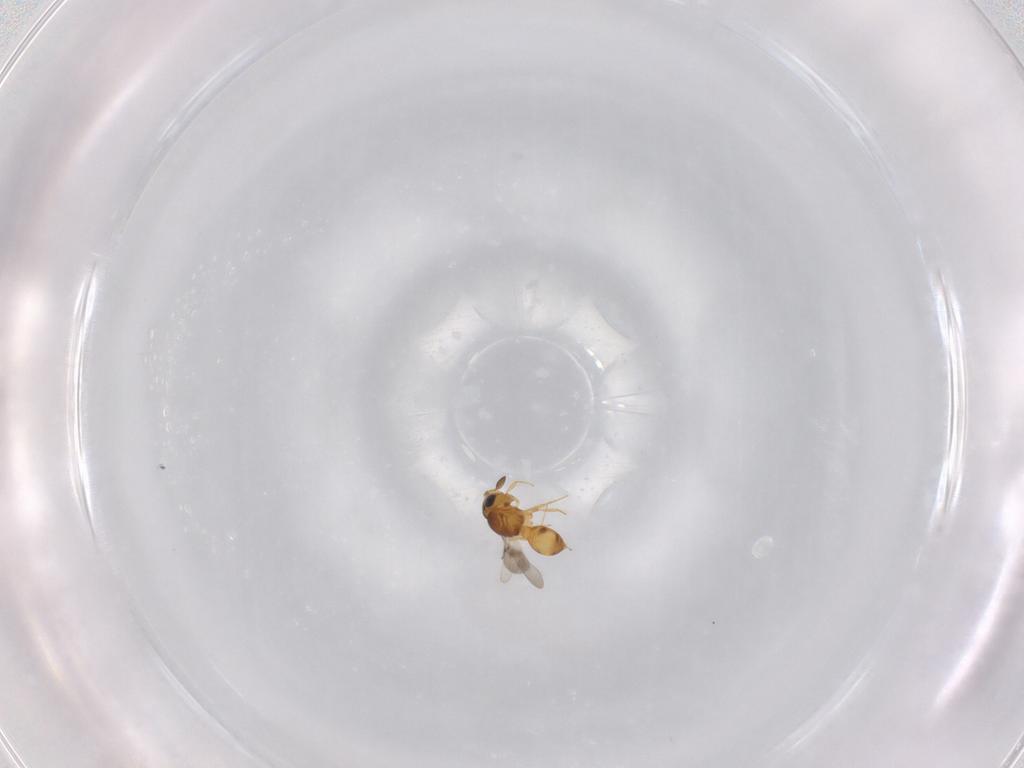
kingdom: Animalia
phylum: Arthropoda
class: Insecta
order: Hymenoptera
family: Scelionidae
